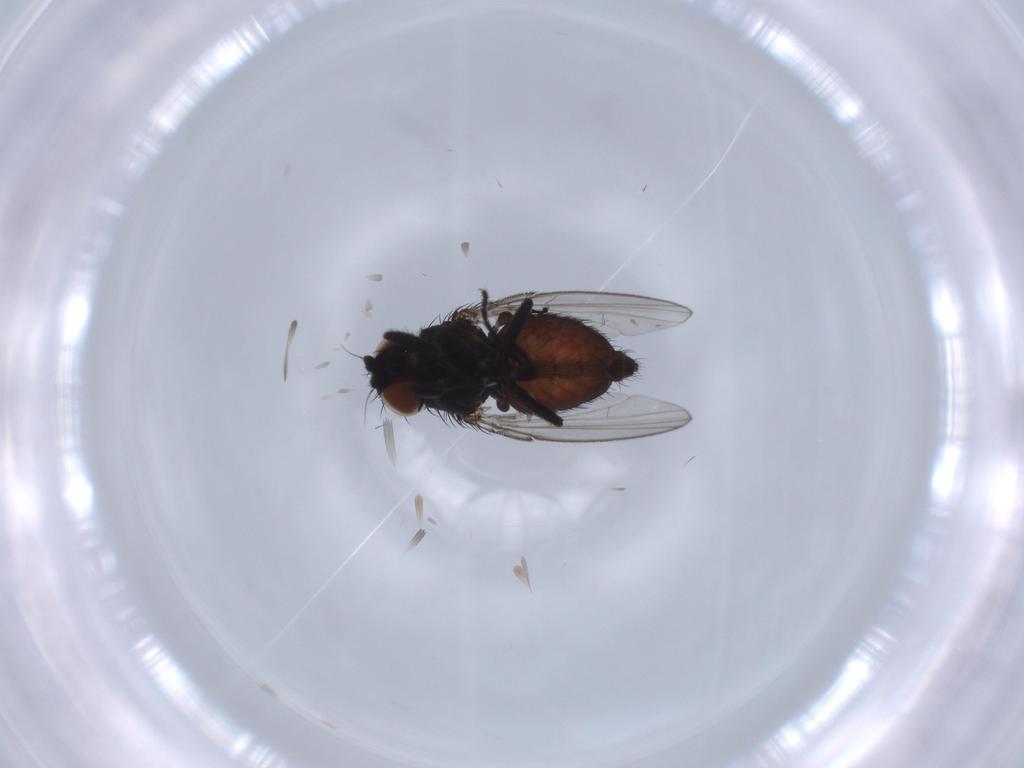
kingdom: Animalia
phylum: Arthropoda
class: Insecta
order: Diptera
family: Milichiidae
